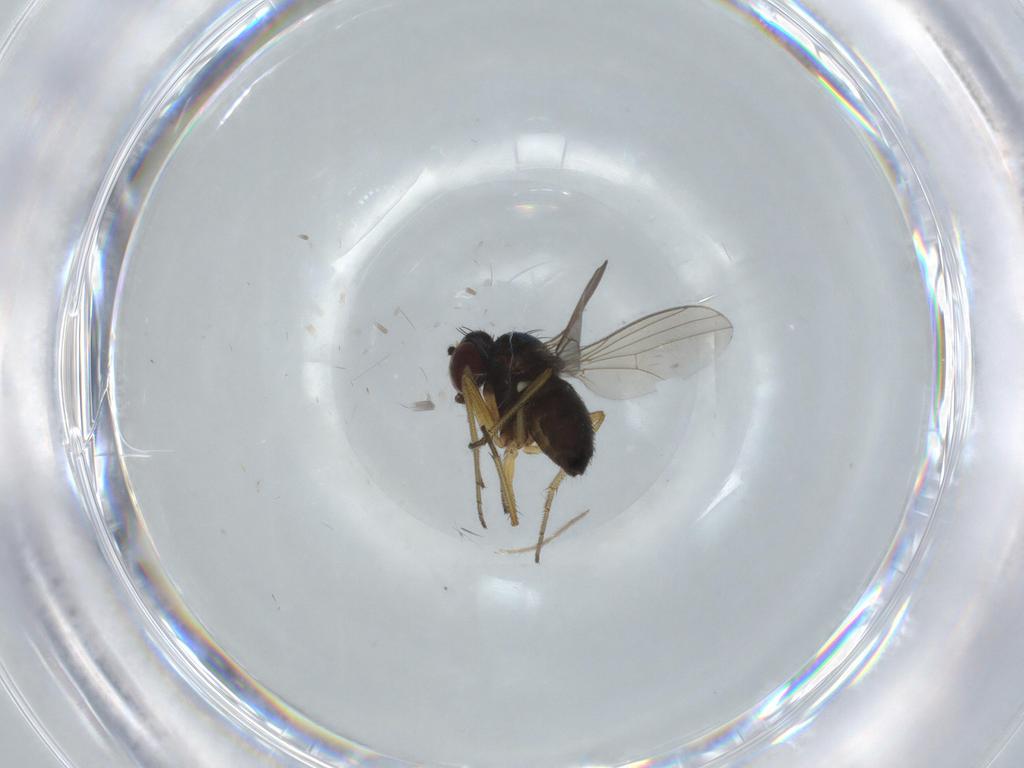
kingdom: Animalia
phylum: Arthropoda
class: Insecta
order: Diptera
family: Dolichopodidae
